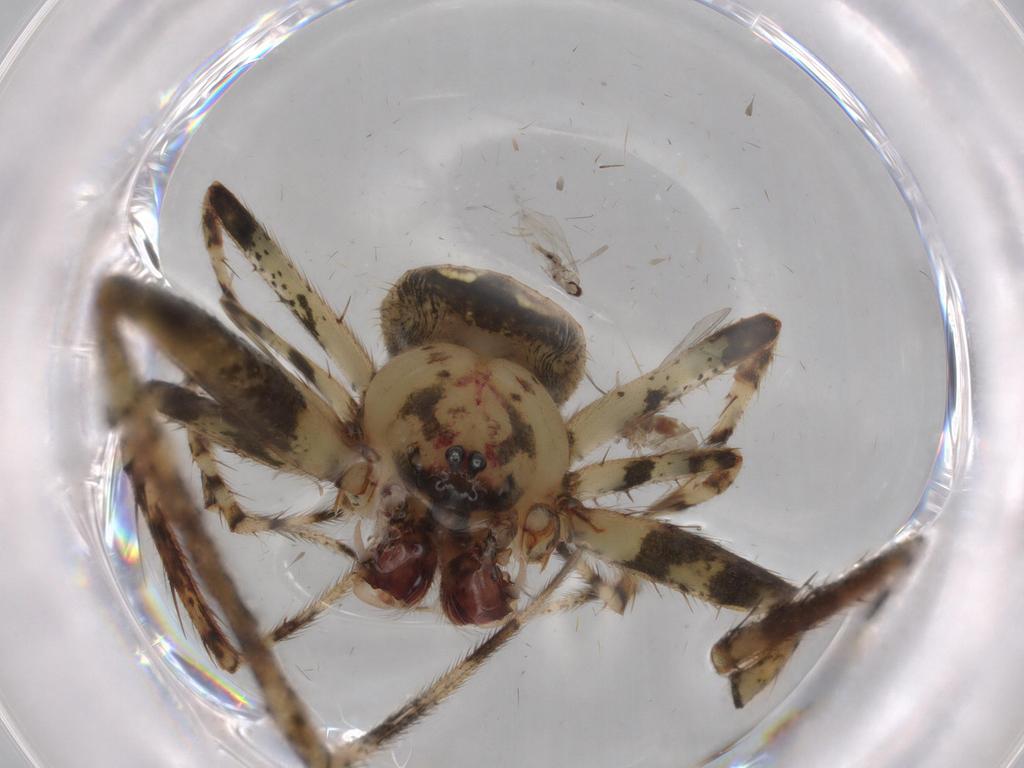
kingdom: Animalia
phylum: Arthropoda
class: Arachnida
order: Araneae
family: Araneidae
